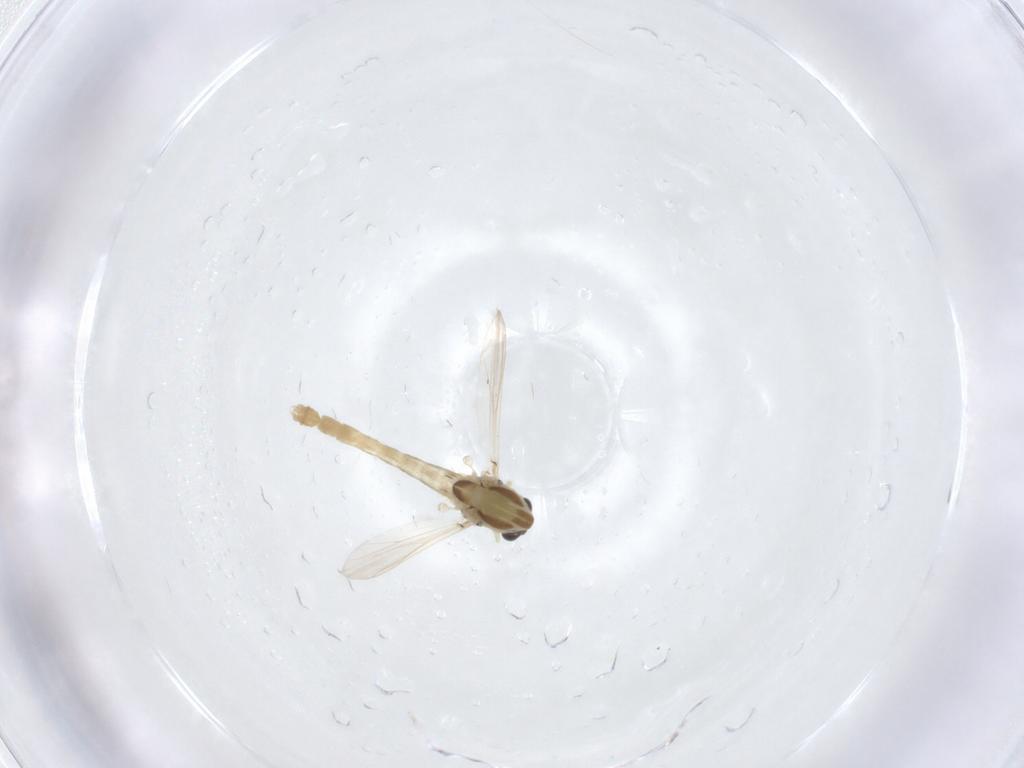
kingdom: Animalia
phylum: Arthropoda
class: Insecta
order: Diptera
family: Chironomidae
